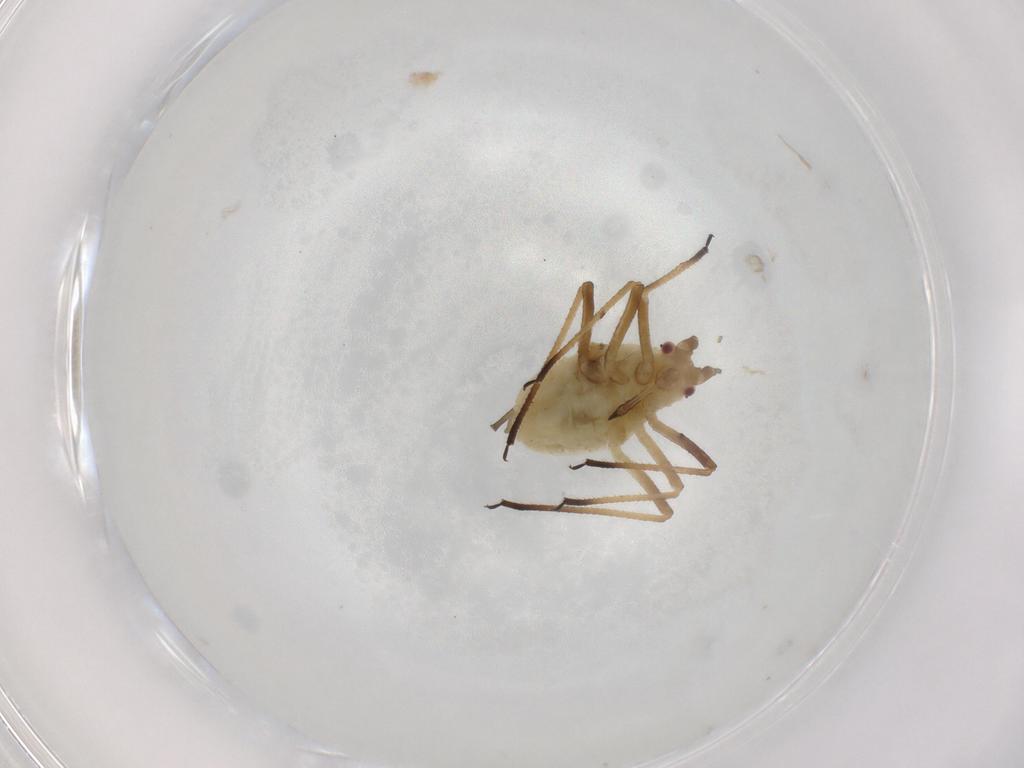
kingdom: Animalia
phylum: Arthropoda
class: Insecta
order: Hemiptera
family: Aphididae
